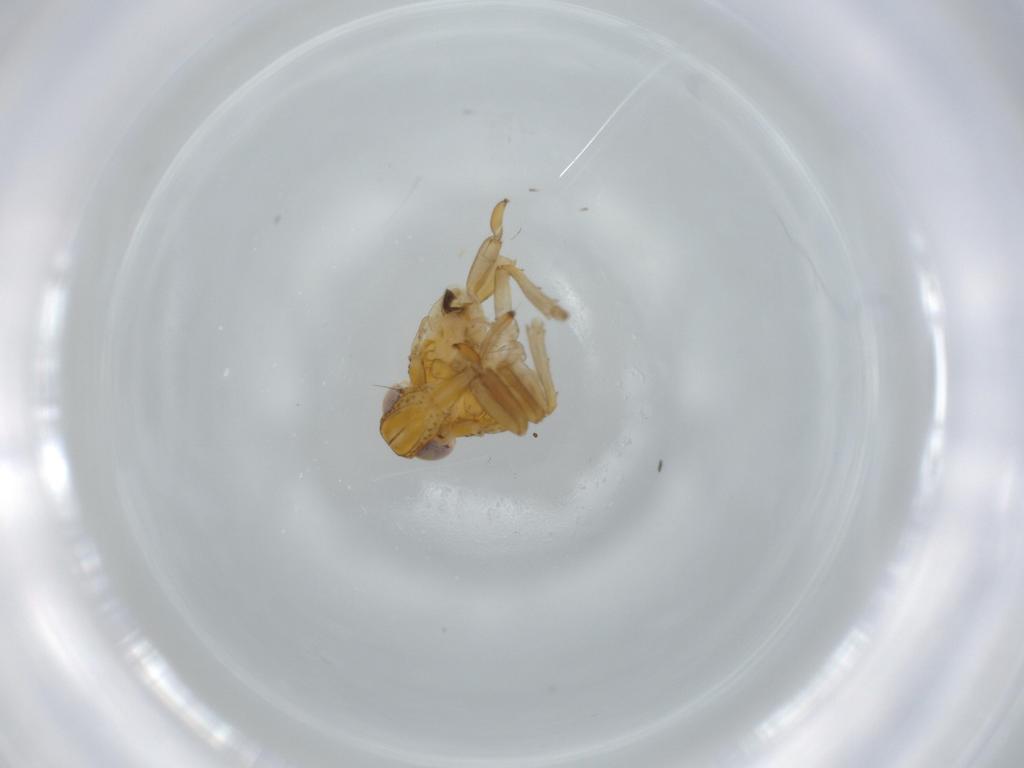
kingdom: Animalia
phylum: Arthropoda
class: Insecta
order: Hemiptera
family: Issidae
